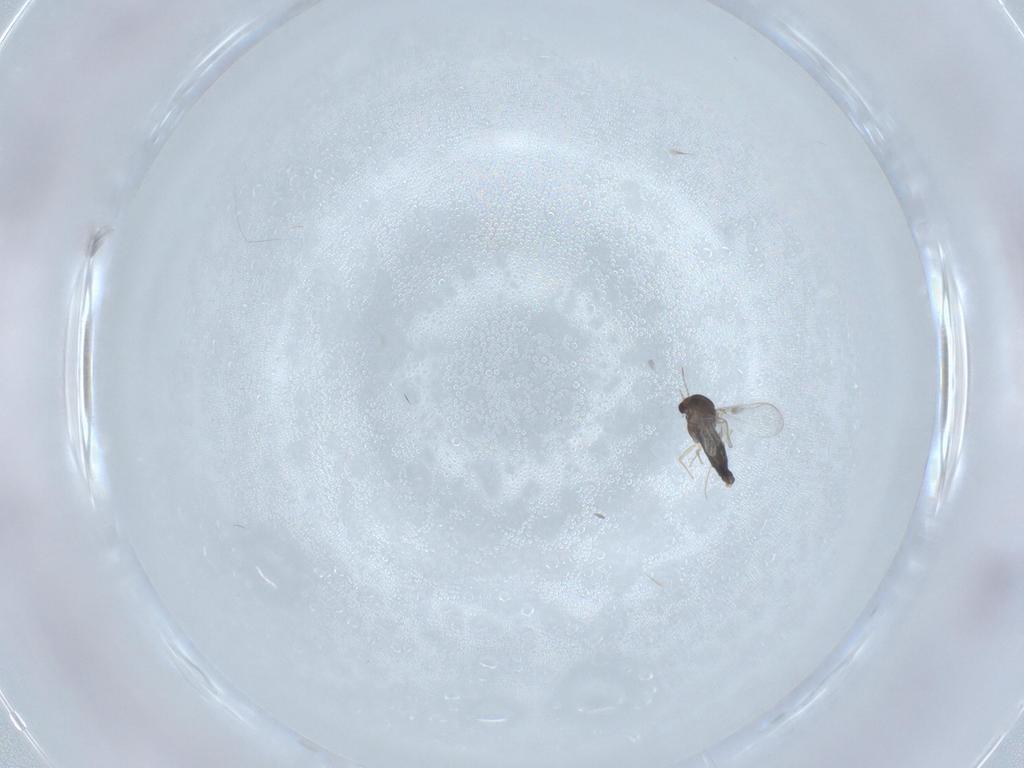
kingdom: Animalia
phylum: Arthropoda
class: Insecta
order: Diptera
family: Chironomidae
